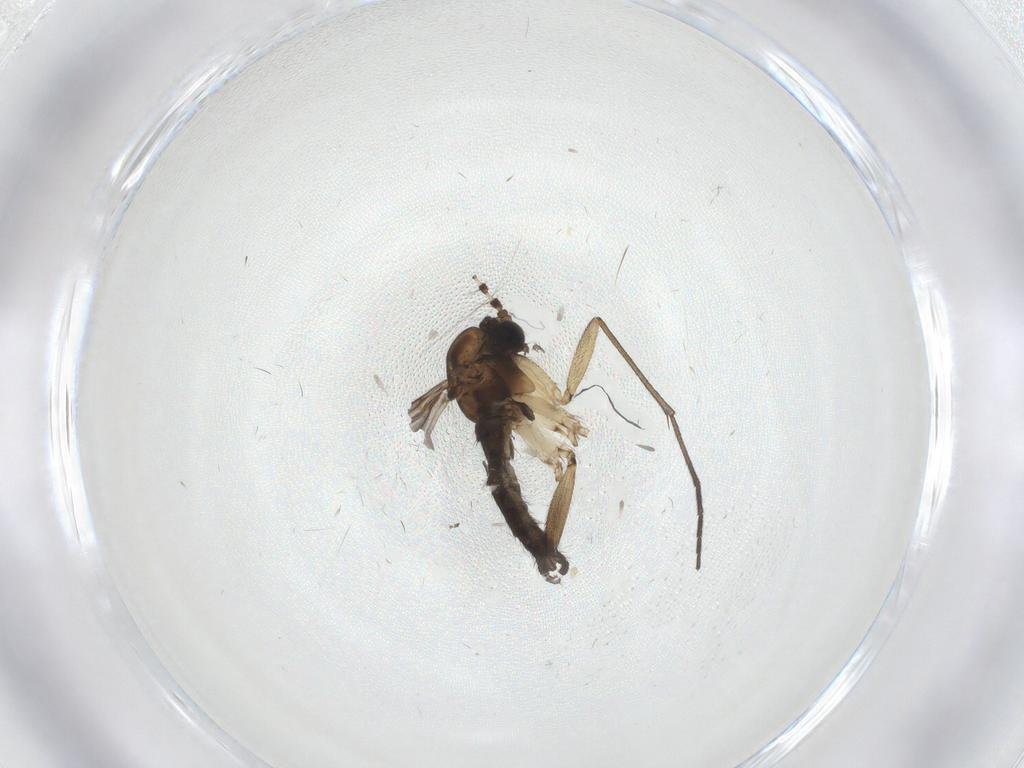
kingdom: Animalia
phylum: Arthropoda
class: Insecta
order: Diptera
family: Sciaridae
